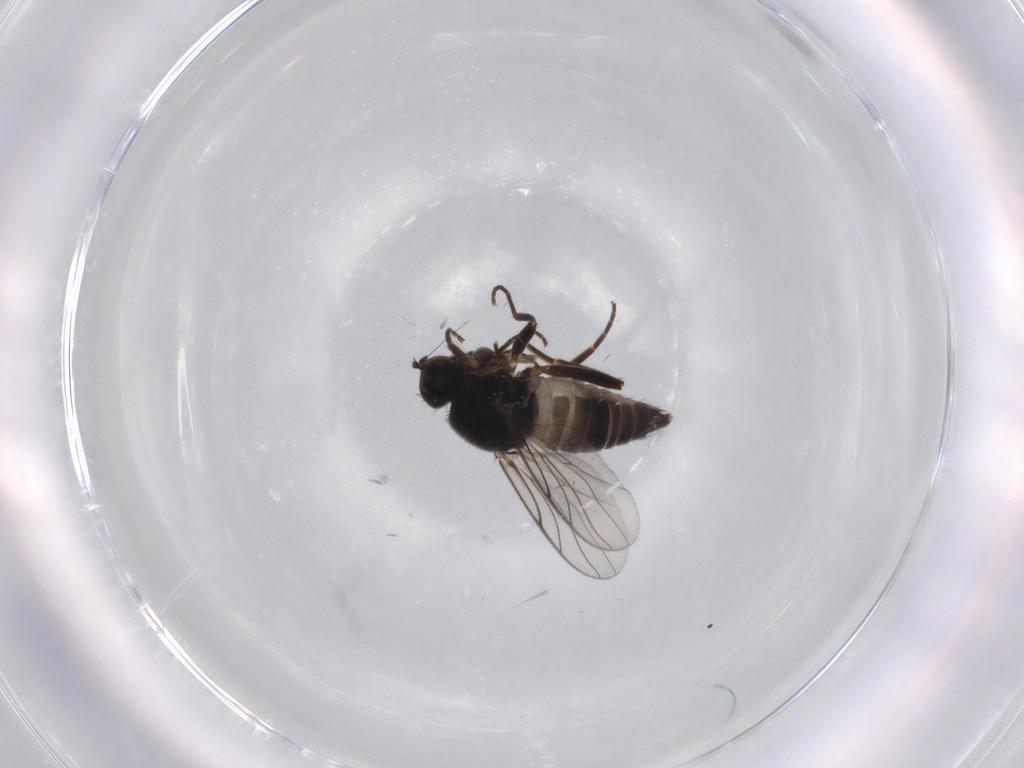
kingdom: Animalia
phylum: Arthropoda
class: Insecta
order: Diptera
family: Hybotidae
